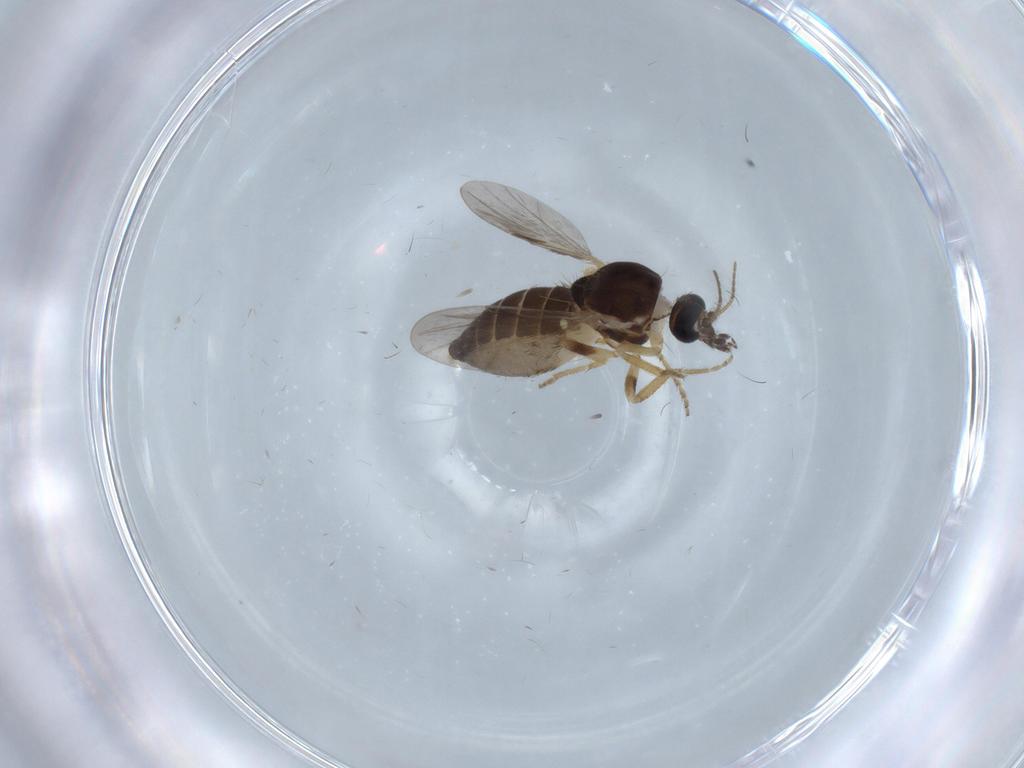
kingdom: Animalia
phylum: Arthropoda
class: Insecta
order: Diptera
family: Ceratopogonidae
